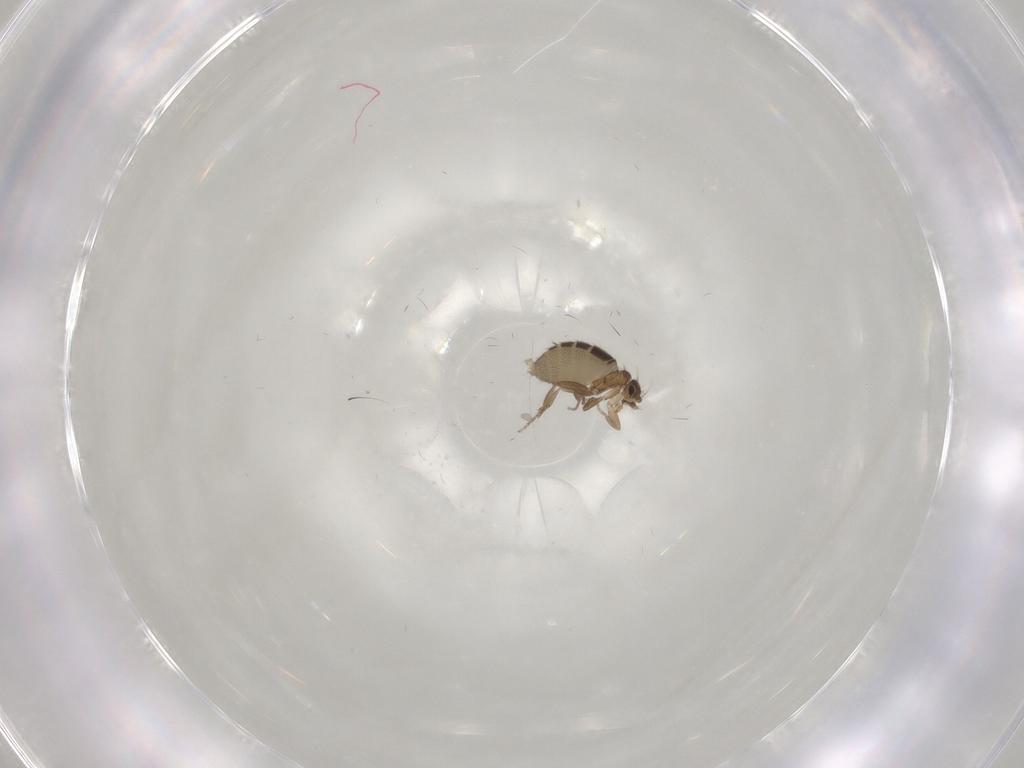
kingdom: Animalia
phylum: Arthropoda
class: Insecta
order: Diptera
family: Phoridae
